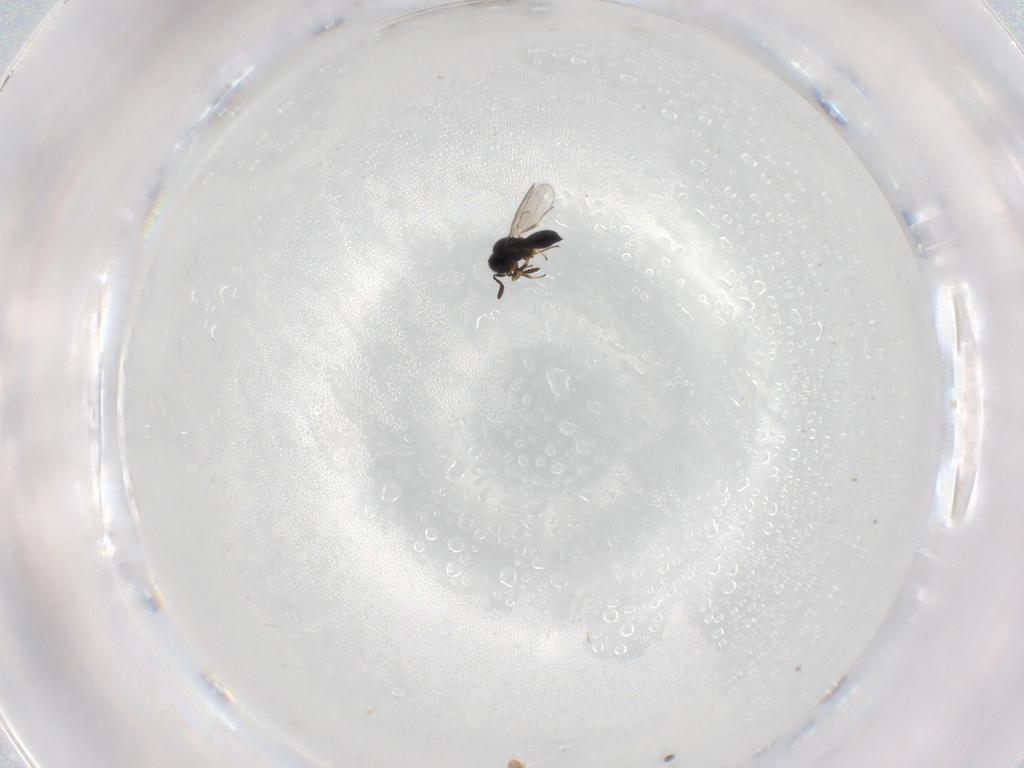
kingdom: Animalia
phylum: Arthropoda
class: Insecta
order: Hymenoptera
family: Scelionidae
